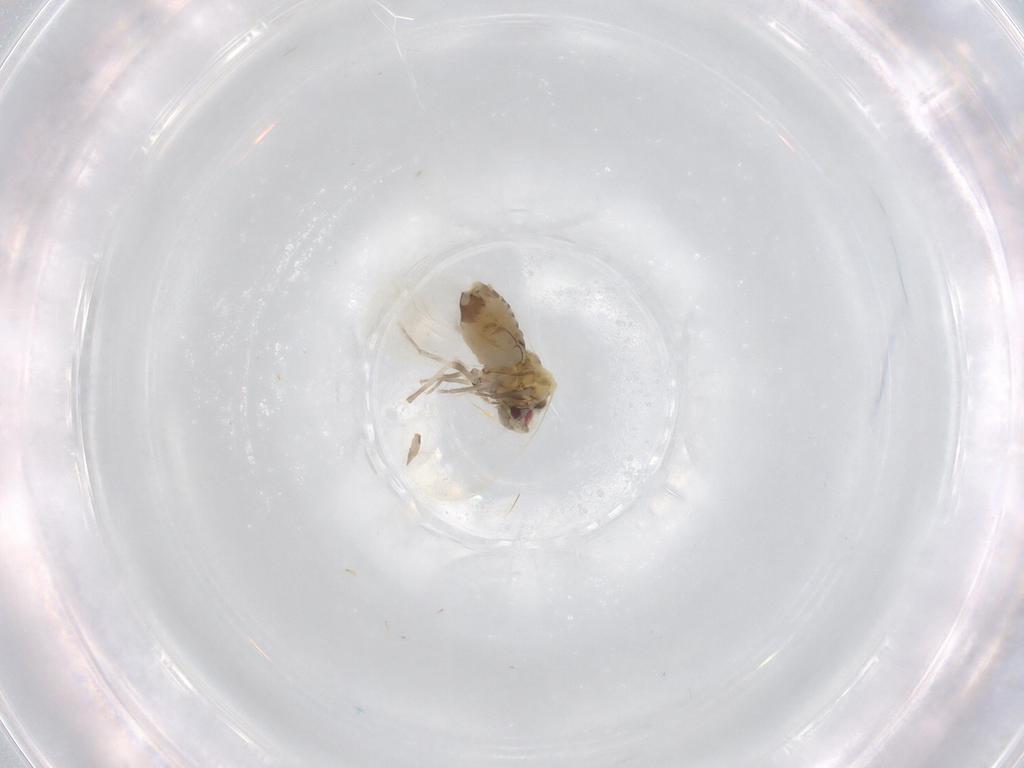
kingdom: Animalia
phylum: Arthropoda
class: Insecta
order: Hemiptera
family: Aleyrodidae
